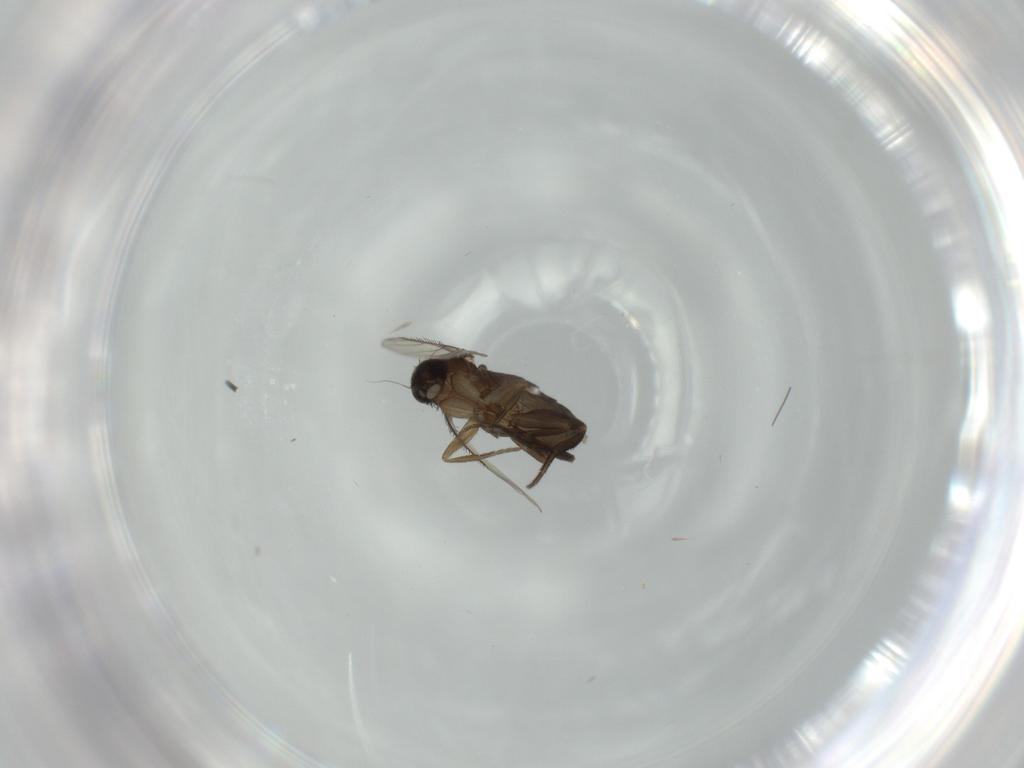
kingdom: Animalia
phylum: Arthropoda
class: Insecta
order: Diptera
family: Phoridae
